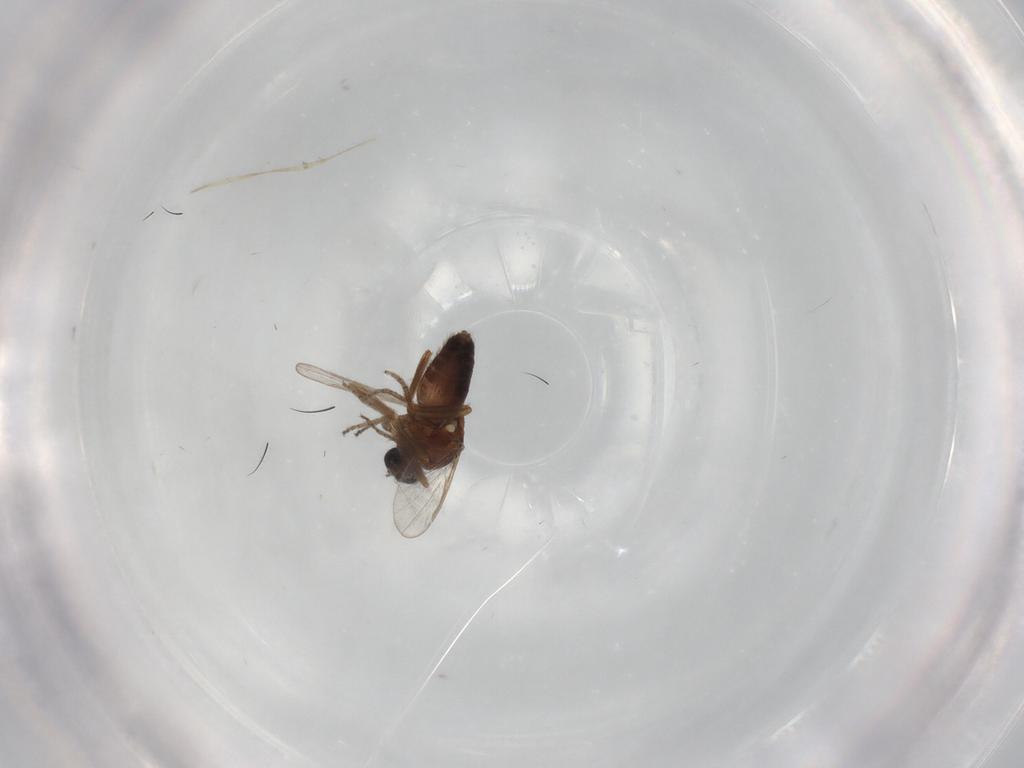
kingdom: Animalia
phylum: Arthropoda
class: Insecta
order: Diptera
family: Ceratopogonidae
